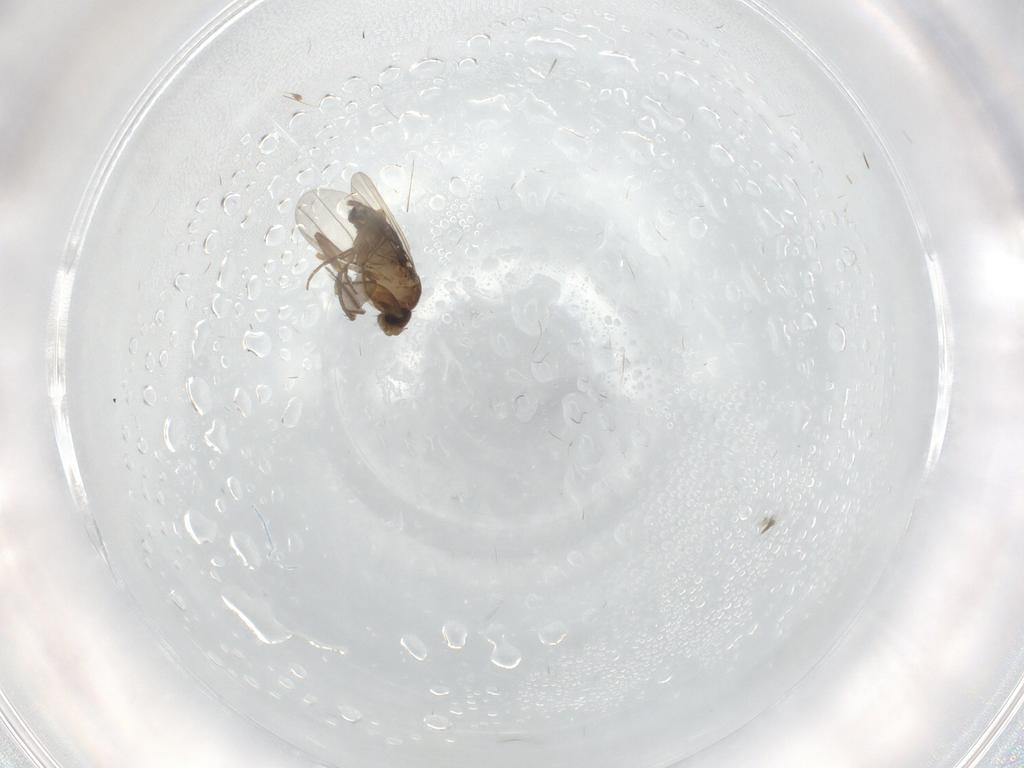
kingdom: Animalia
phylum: Arthropoda
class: Insecta
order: Diptera
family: Phoridae
